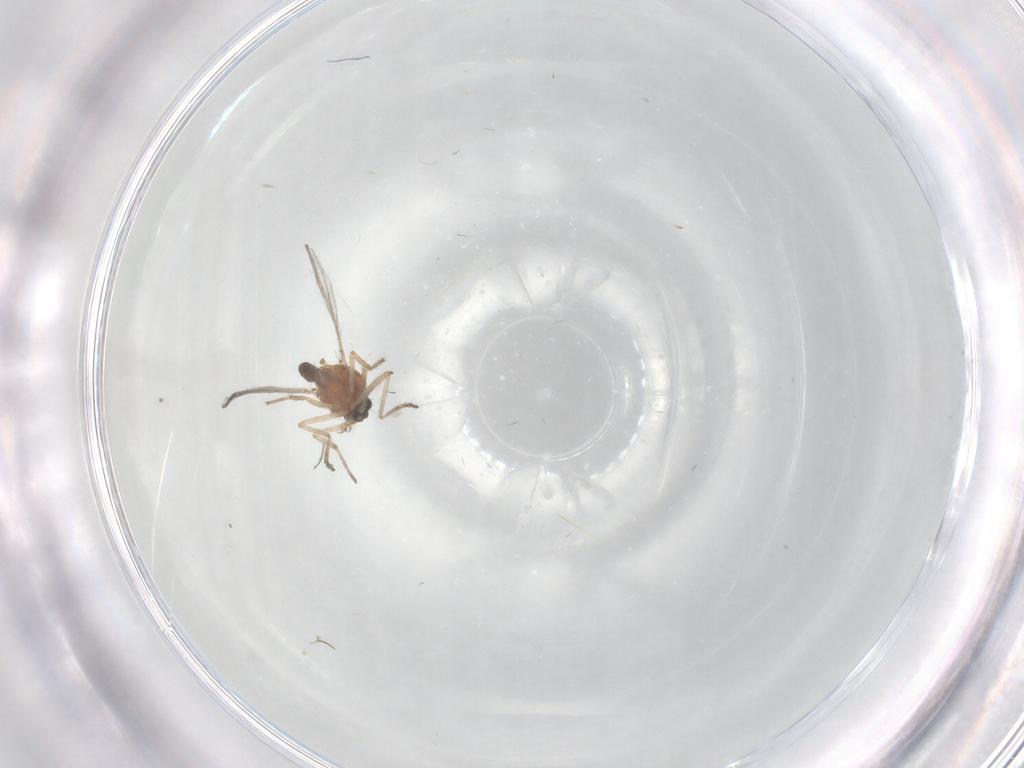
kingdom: Animalia
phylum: Arthropoda
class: Insecta
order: Diptera
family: Drosophilidae
